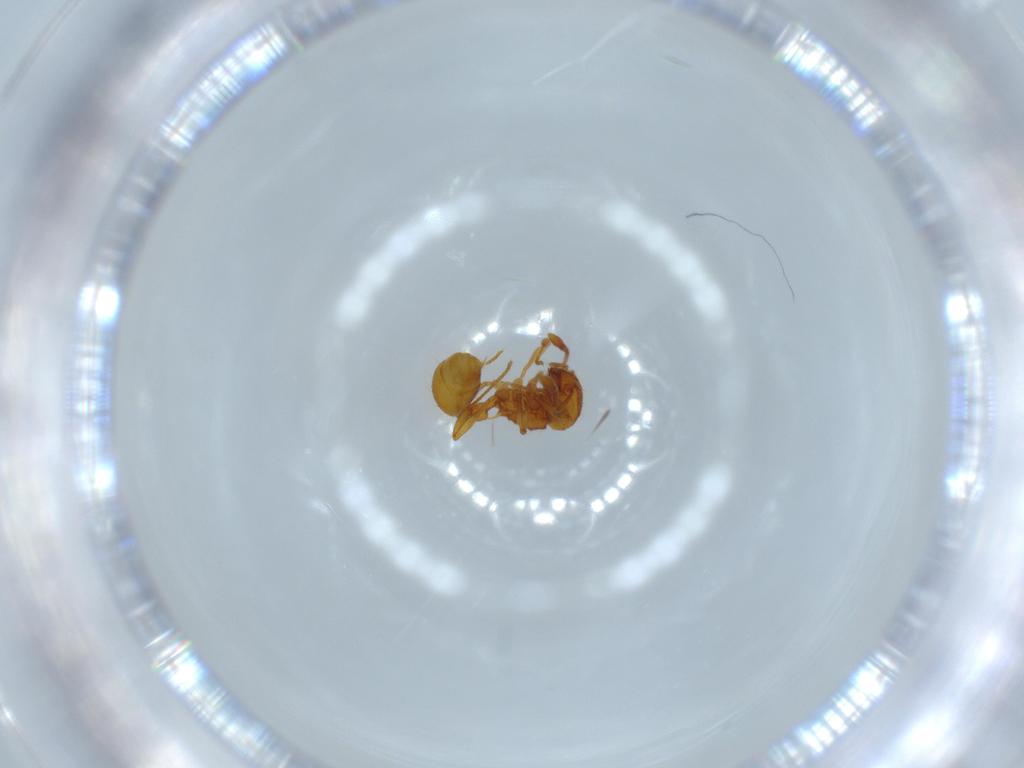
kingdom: Animalia
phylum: Arthropoda
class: Insecta
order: Hymenoptera
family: Formicidae
